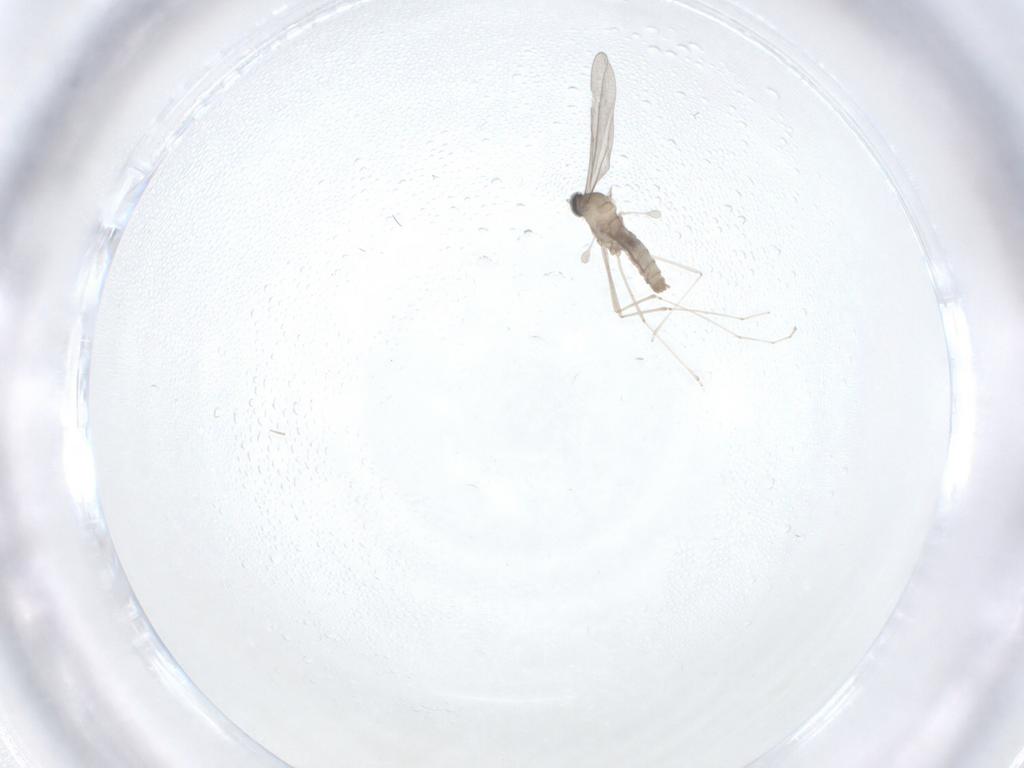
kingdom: Animalia
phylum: Arthropoda
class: Insecta
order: Diptera
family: Cecidomyiidae
